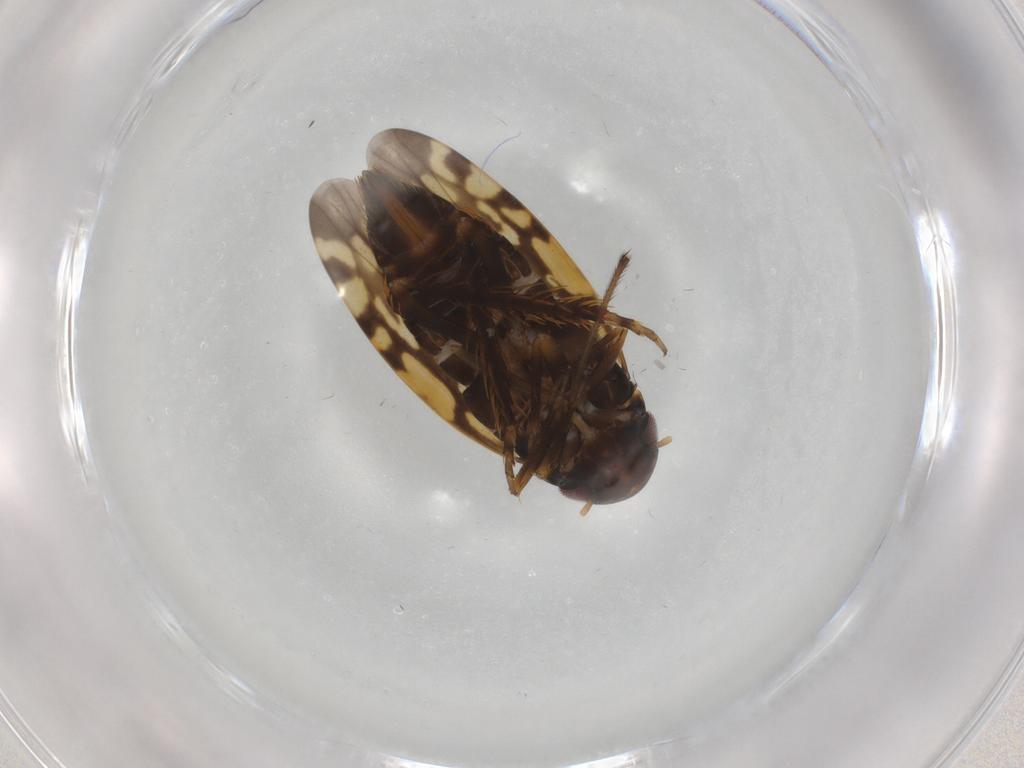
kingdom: Animalia
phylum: Arthropoda
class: Insecta
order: Hemiptera
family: Cicadellidae
